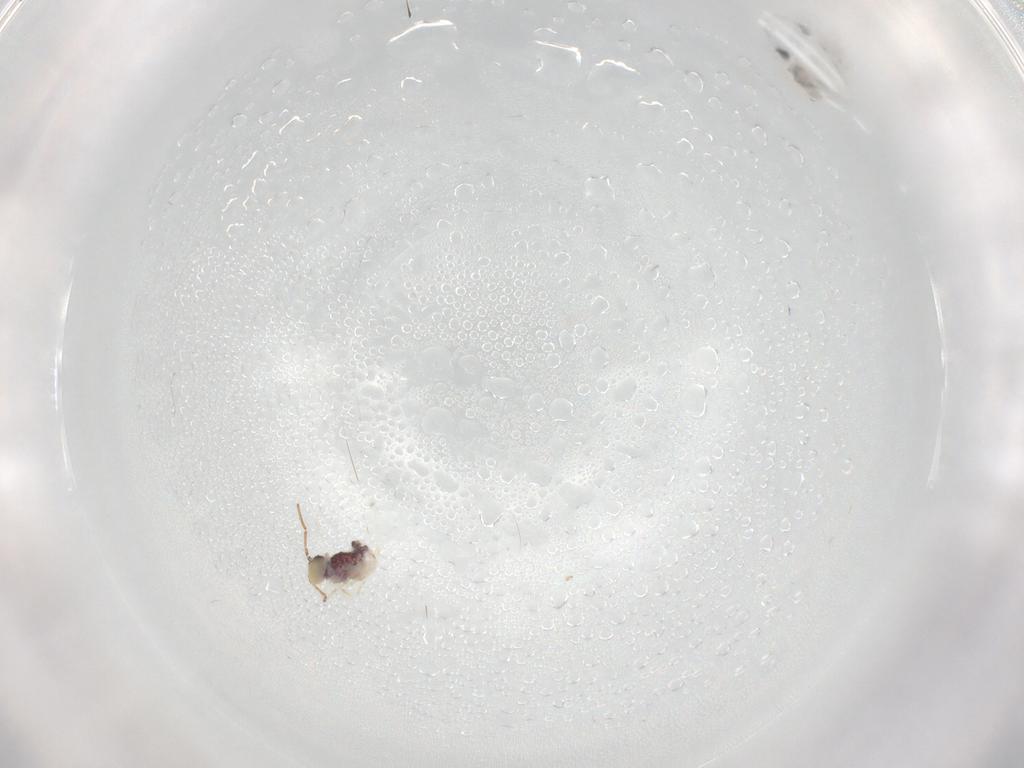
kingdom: Animalia
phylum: Arthropoda
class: Collembola
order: Symphypleona
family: Bourletiellidae
